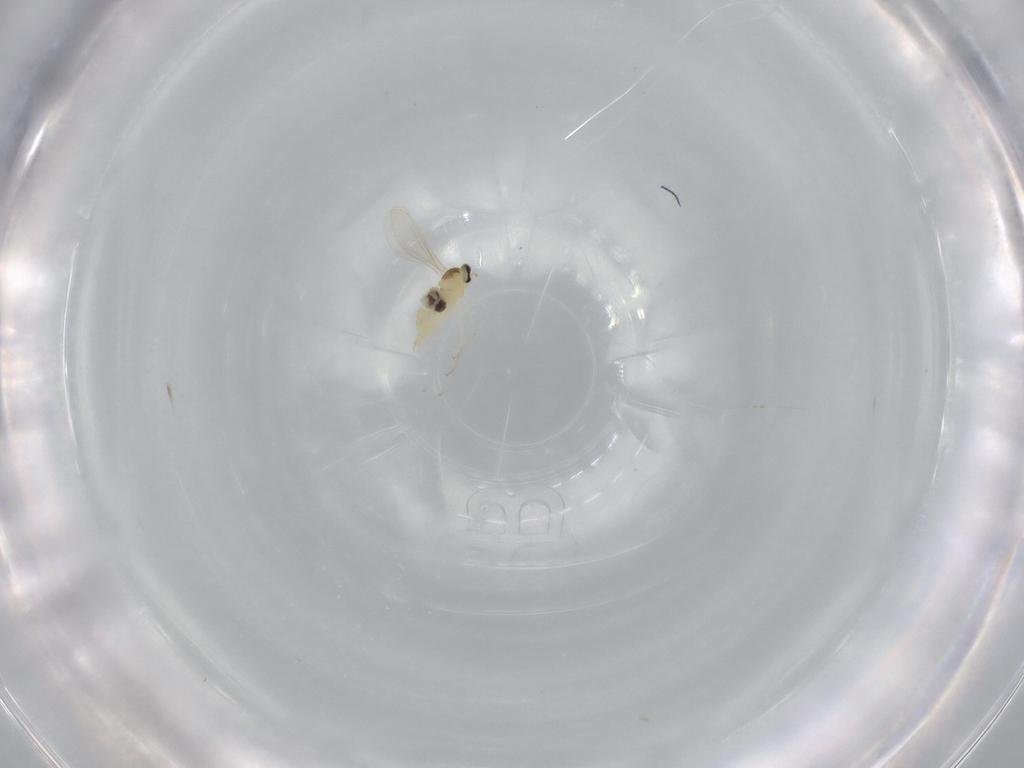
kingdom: Animalia
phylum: Arthropoda
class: Insecta
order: Diptera
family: Cecidomyiidae
